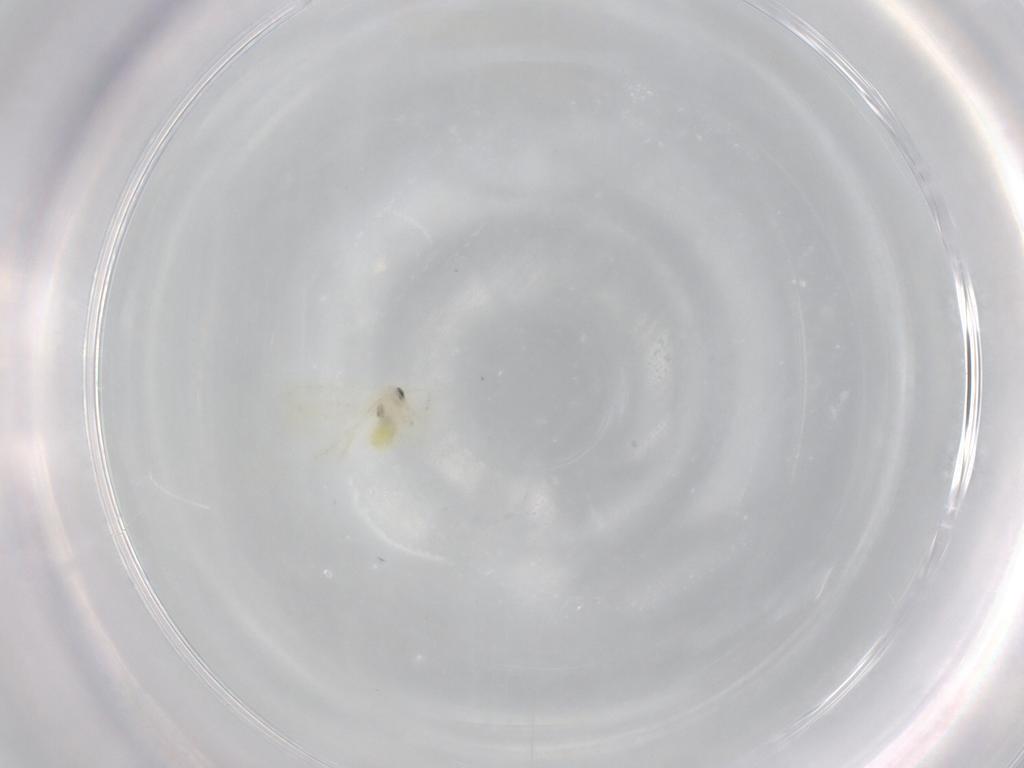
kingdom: Animalia
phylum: Arthropoda
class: Insecta
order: Hemiptera
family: Aleyrodidae
